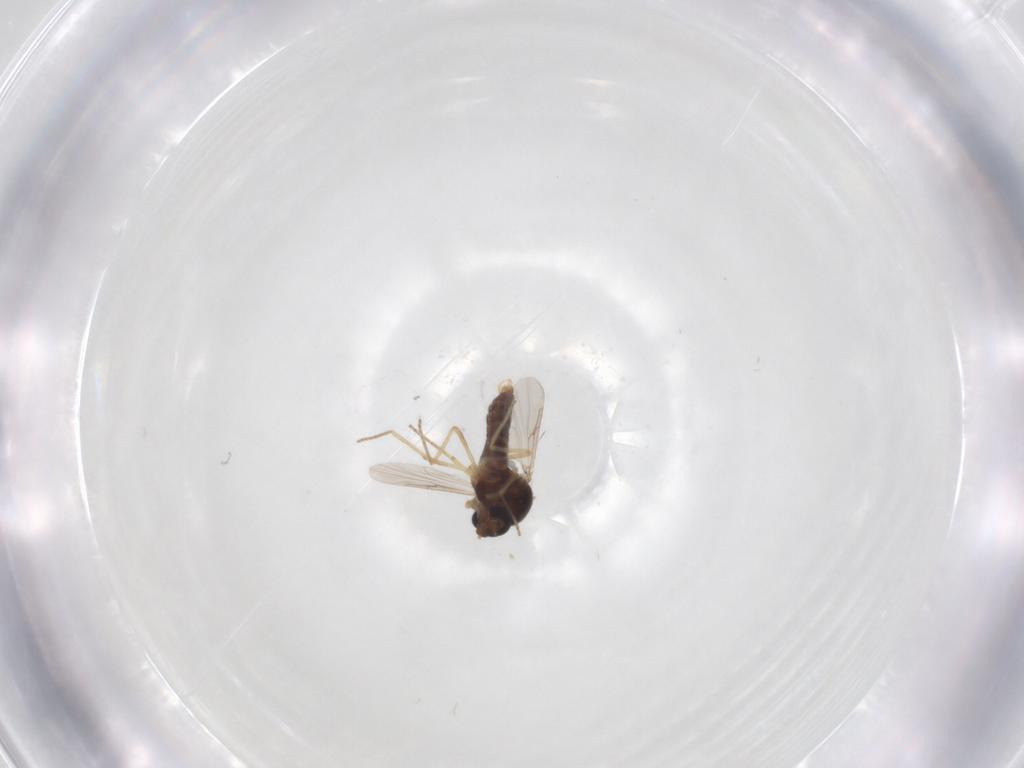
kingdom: Animalia
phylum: Arthropoda
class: Insecta
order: Diptera
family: Ceratopogonidae
